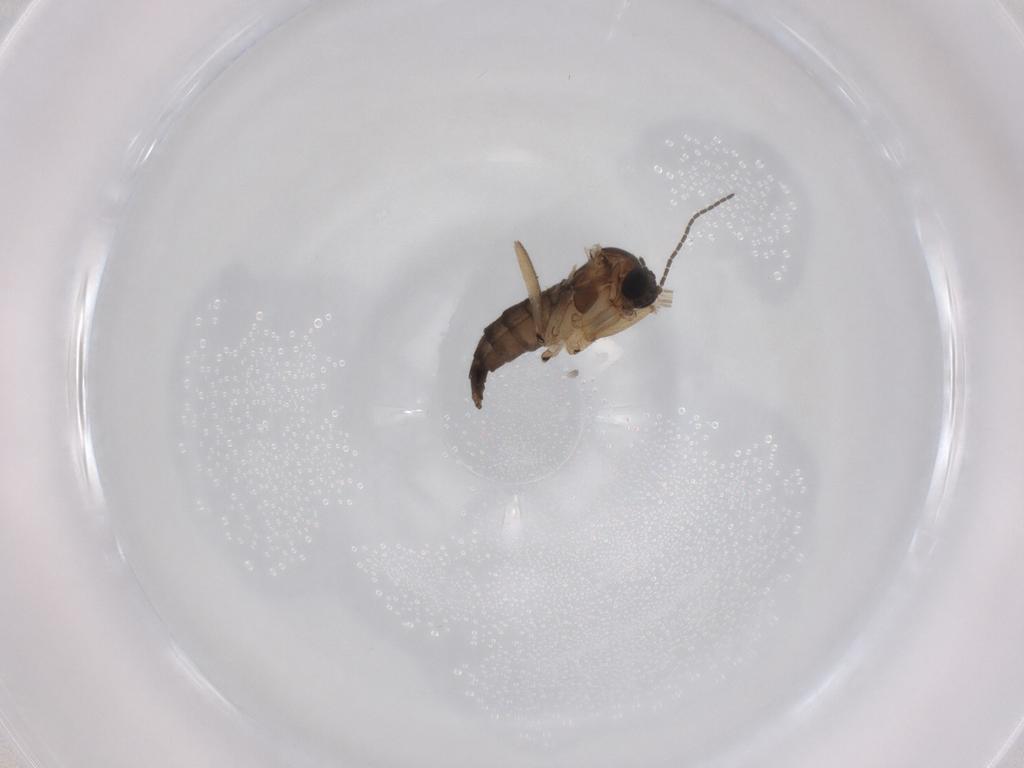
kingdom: Animalia
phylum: Arthropoda
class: Insecta
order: Diptera
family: Sciaridae
